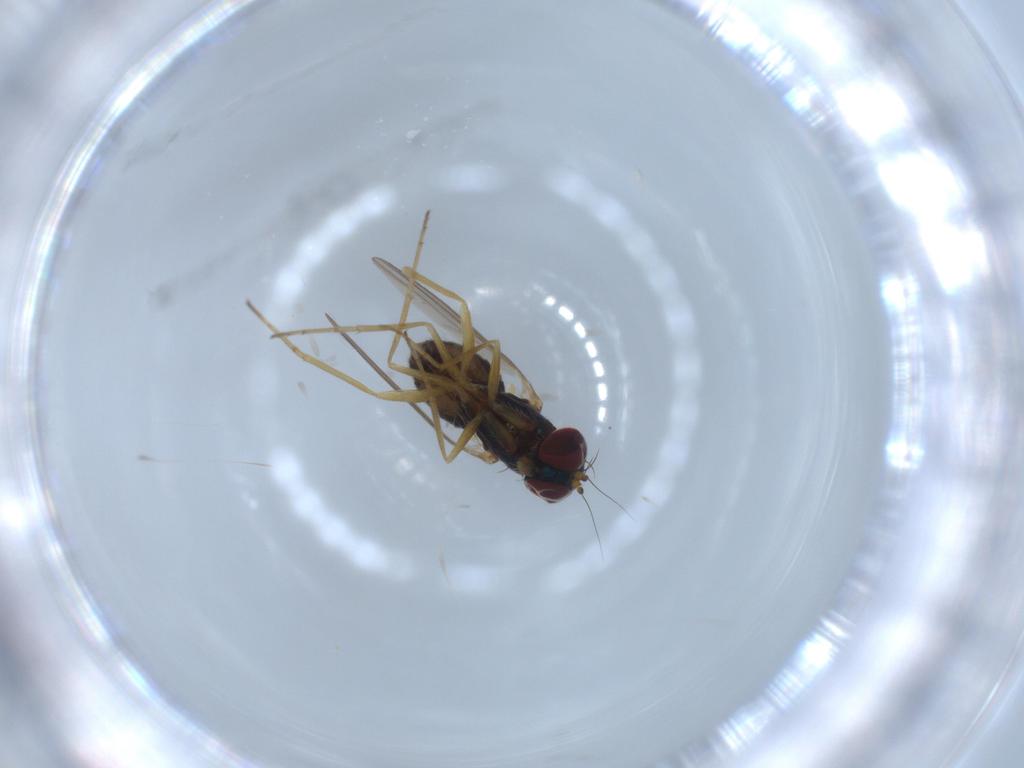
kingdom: Animalia
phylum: Arthropoda
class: Insecta
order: Diptera
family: Dolichopodidae
